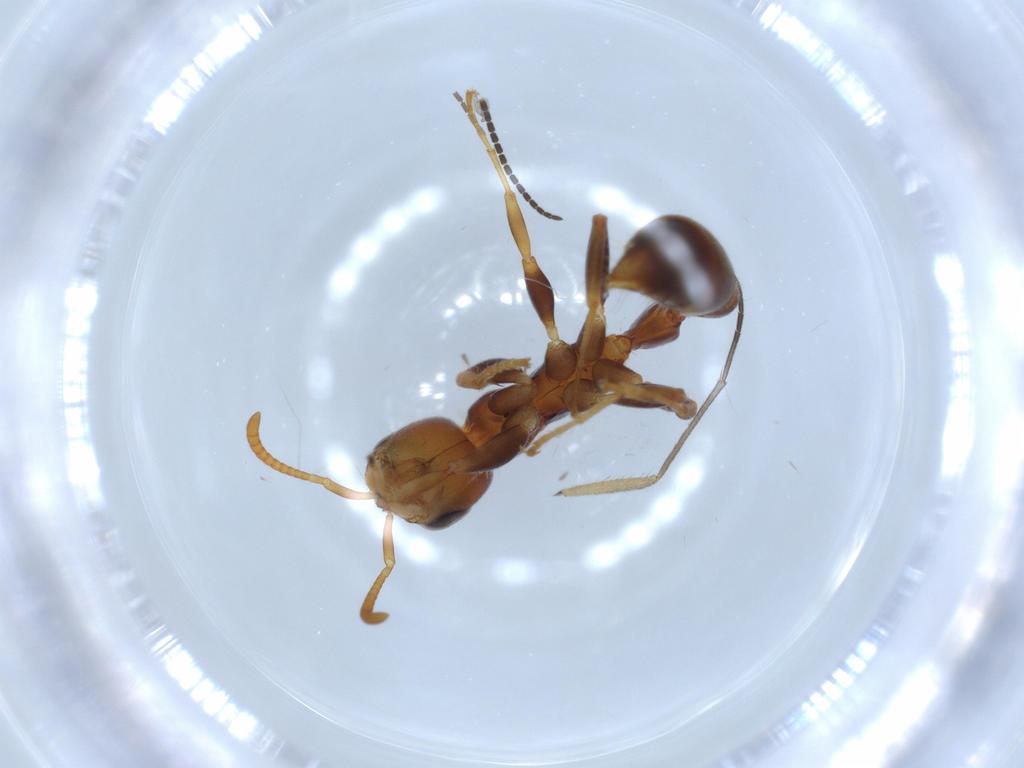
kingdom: Animalia
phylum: Arthropoda
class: Insecta
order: Hymenoptera
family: Formicidae
